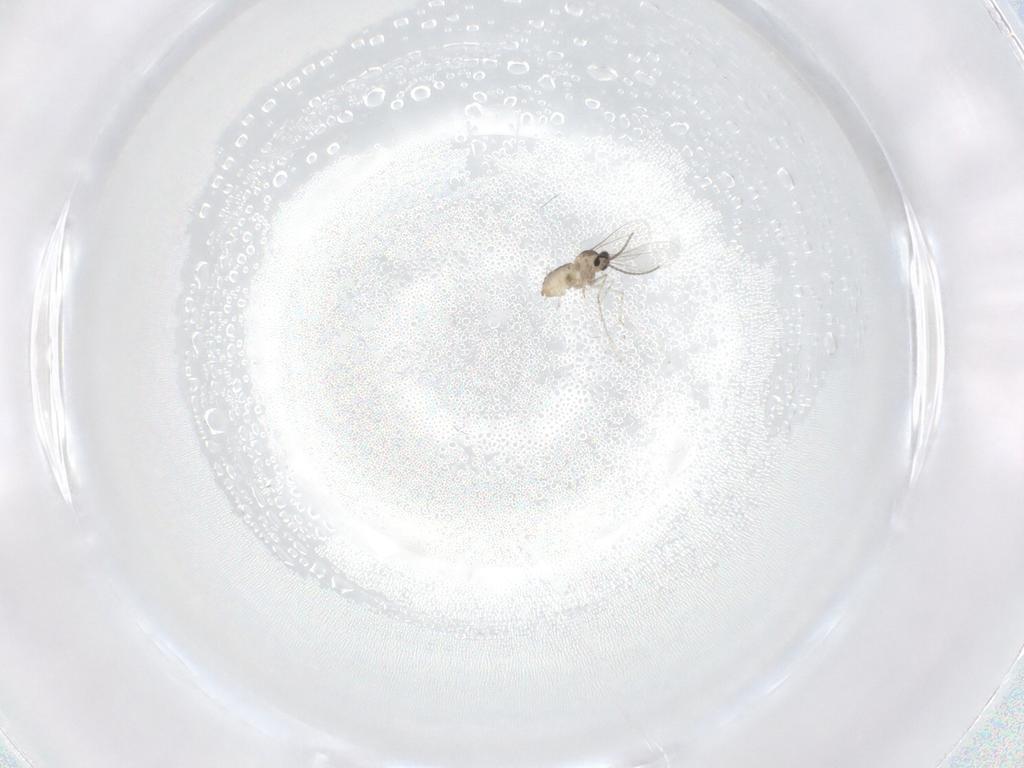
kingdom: Animalia
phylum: Arthropoda
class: Insecta
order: Diptera
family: Cecidomyiidae
